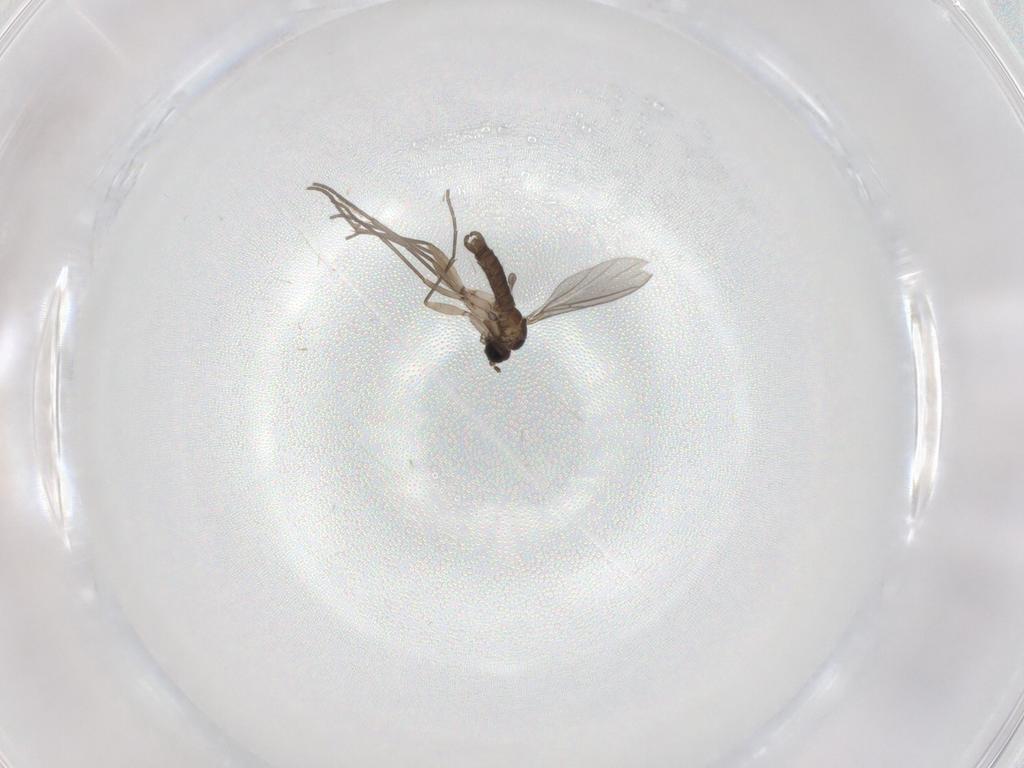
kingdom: Animalia
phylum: Arthropoda
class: Insecta
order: Diptera
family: Sciaridae
